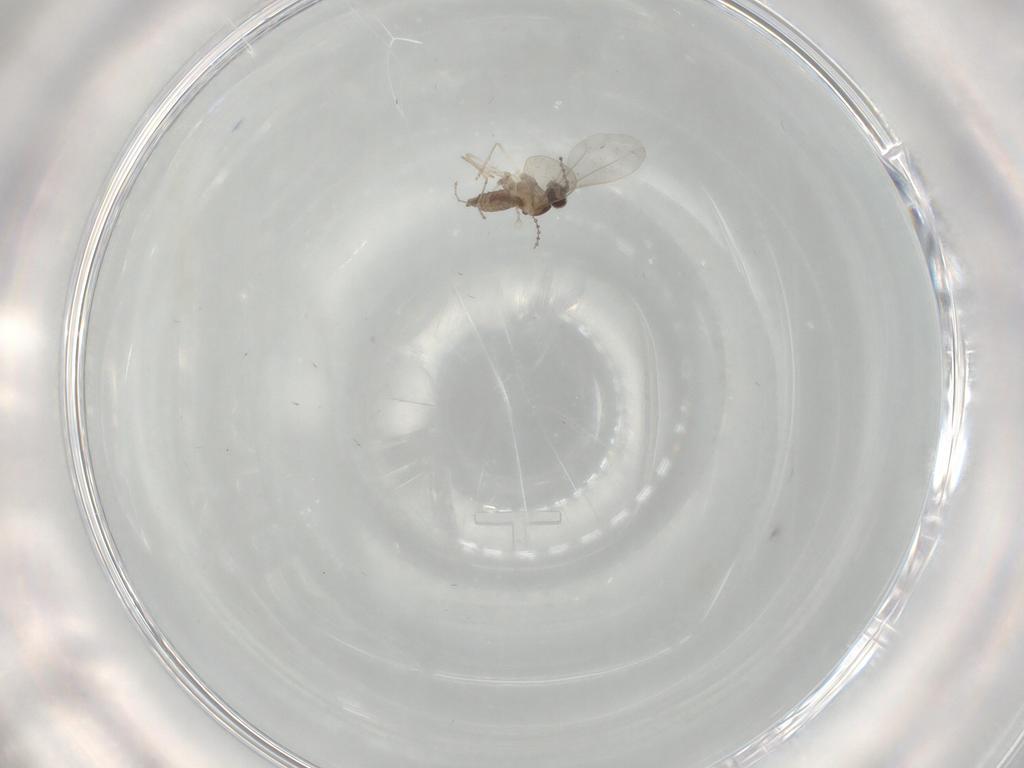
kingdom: Animalia
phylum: Arthropoda
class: Insecta
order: Diptera
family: Cecidomyiidae
